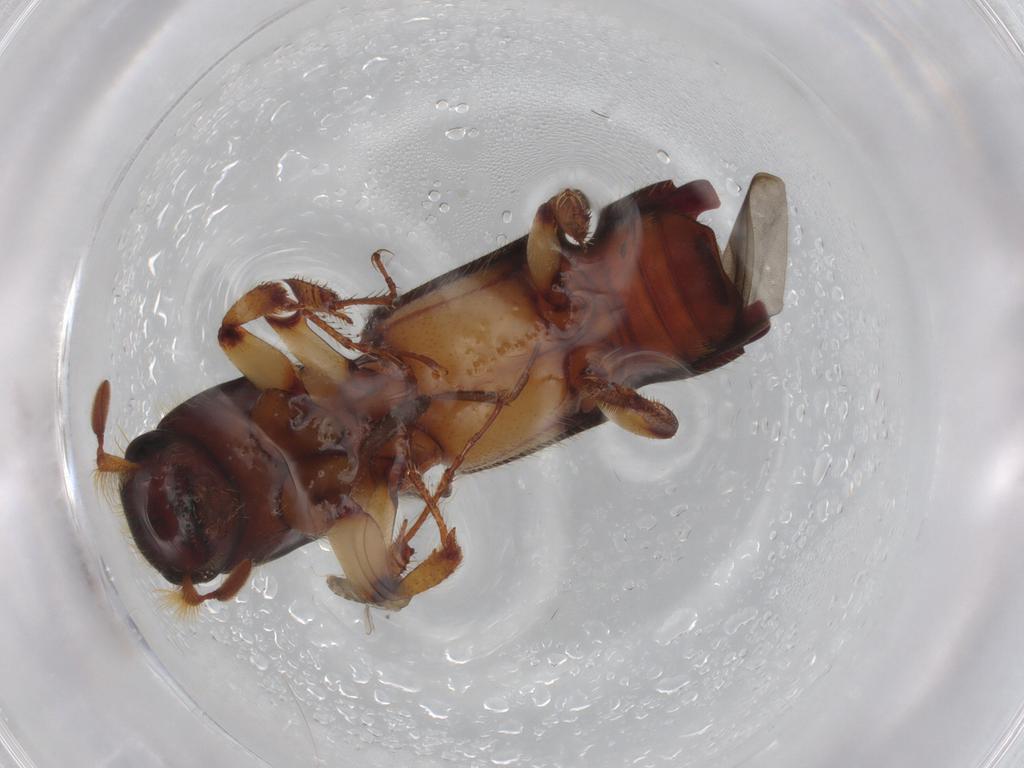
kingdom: Animalia
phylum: Arthropoda
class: Insecta
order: Coleoptera
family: Curculionidae
